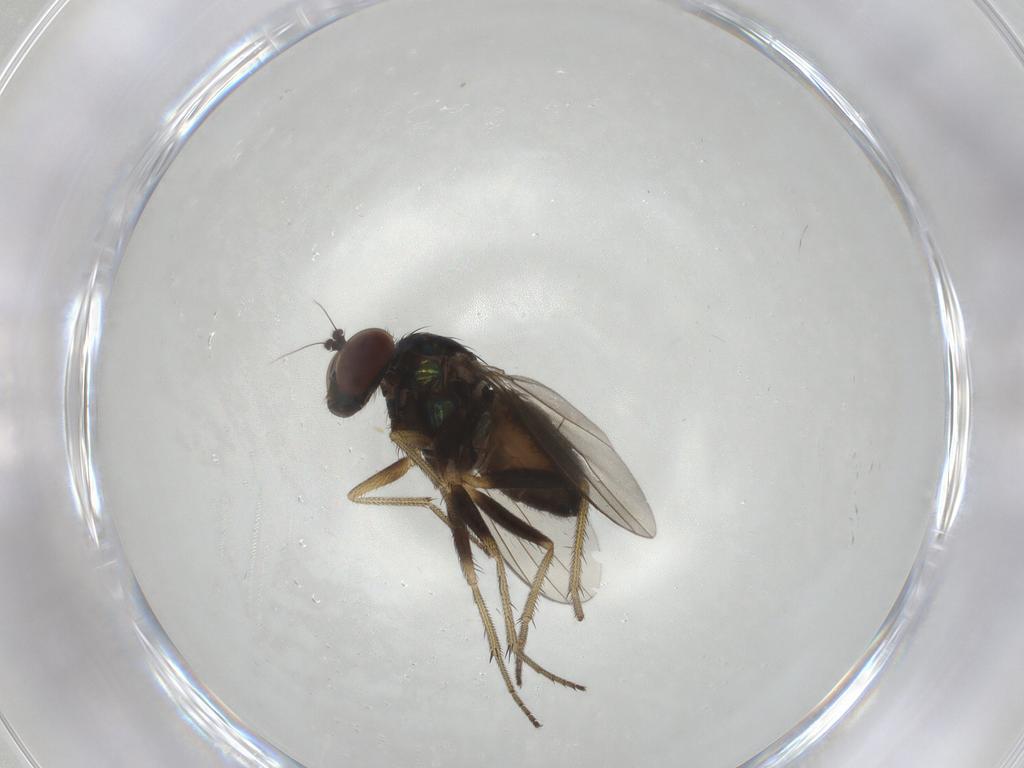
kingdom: Animalia
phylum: Arthropoda
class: Insecta
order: Diptera
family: Dolichopodidae
